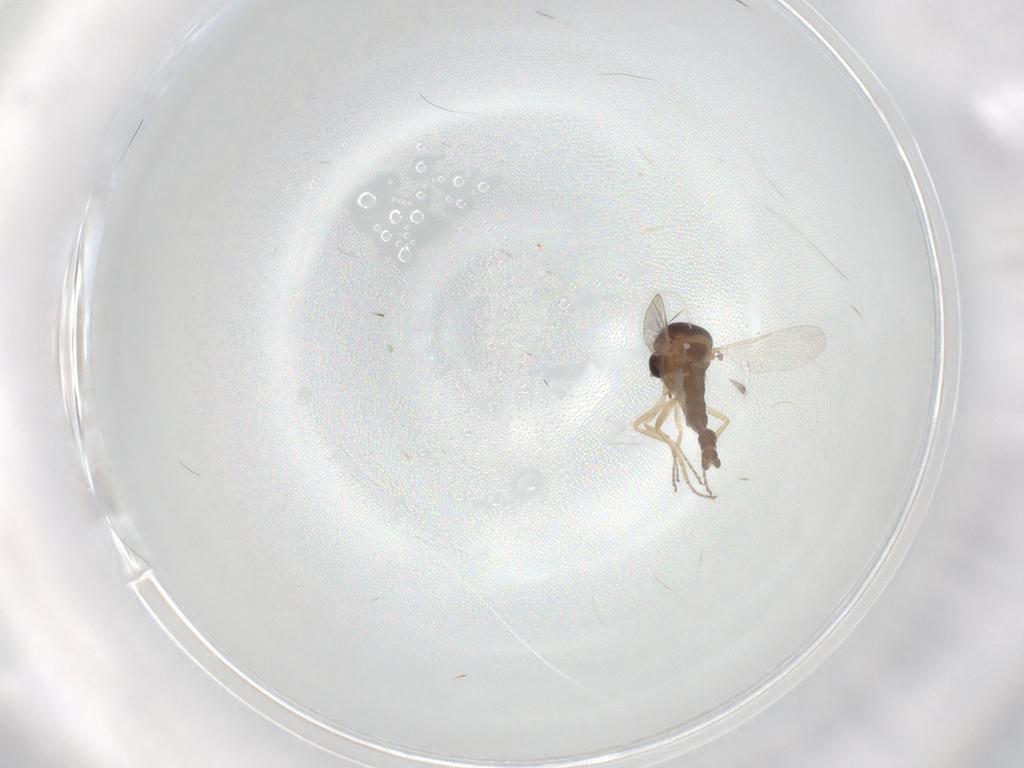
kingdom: Animalia
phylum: Arthropoda
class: Insecta
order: Diptera
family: Ceratopogonidae
